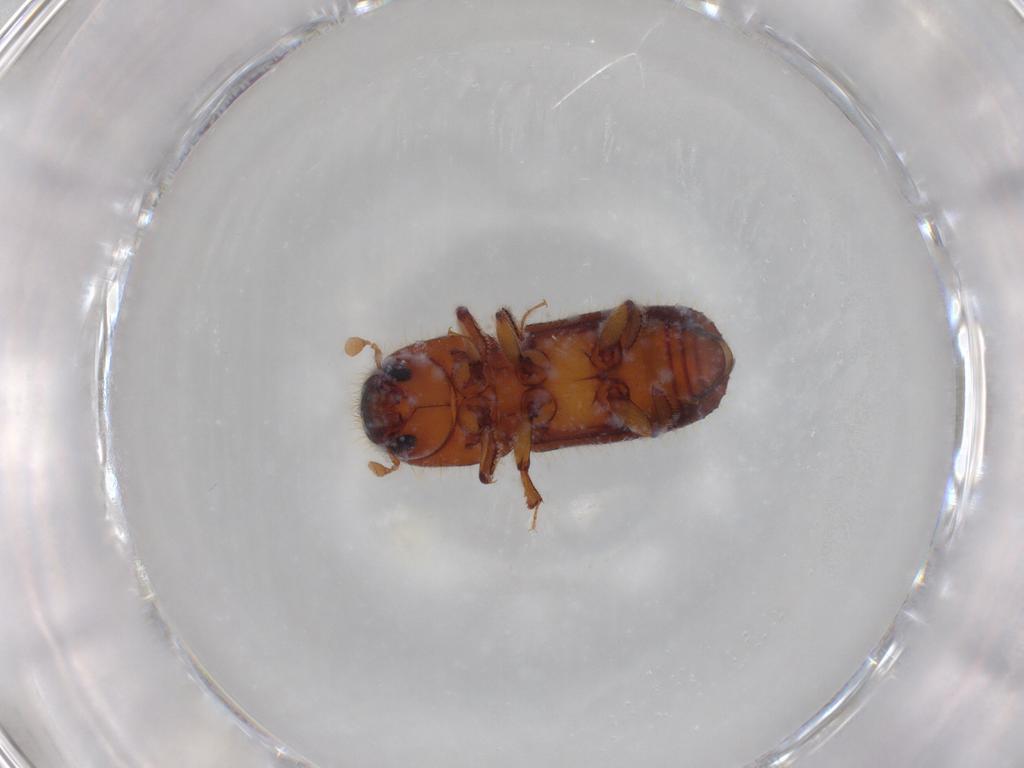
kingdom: Animalia
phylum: Arthropoda
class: Insecta
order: Coleoptera
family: Curculionidae
